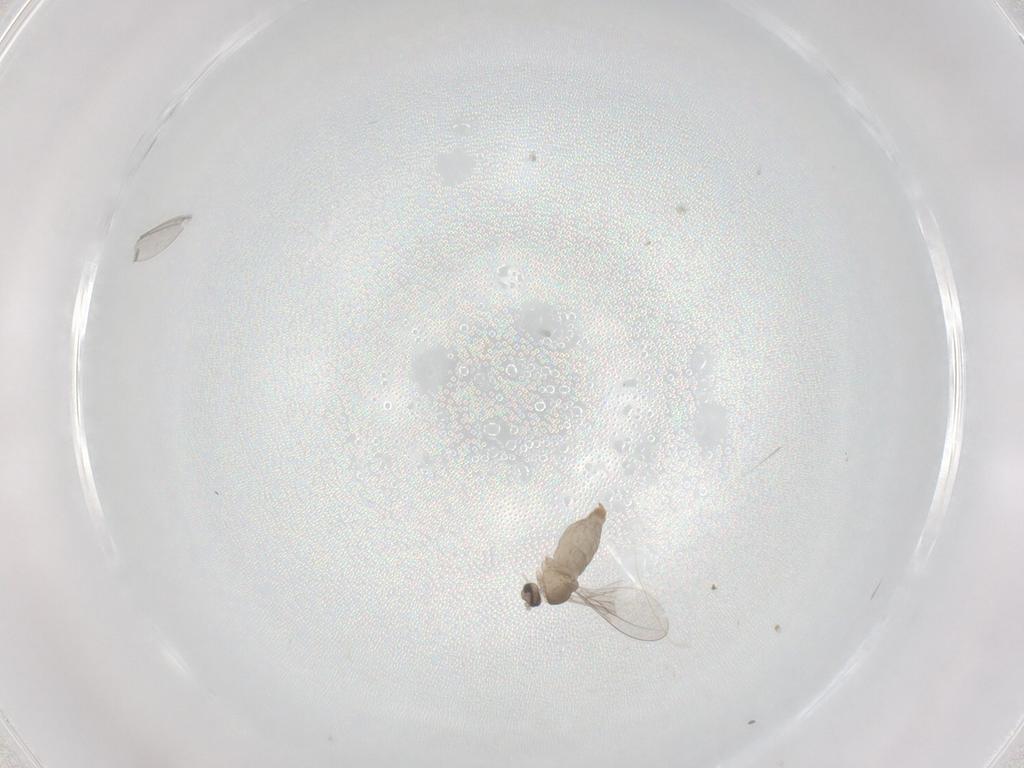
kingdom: Animalia
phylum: Arthropoda
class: Insecta
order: Diptera
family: Cecidomyiidae
